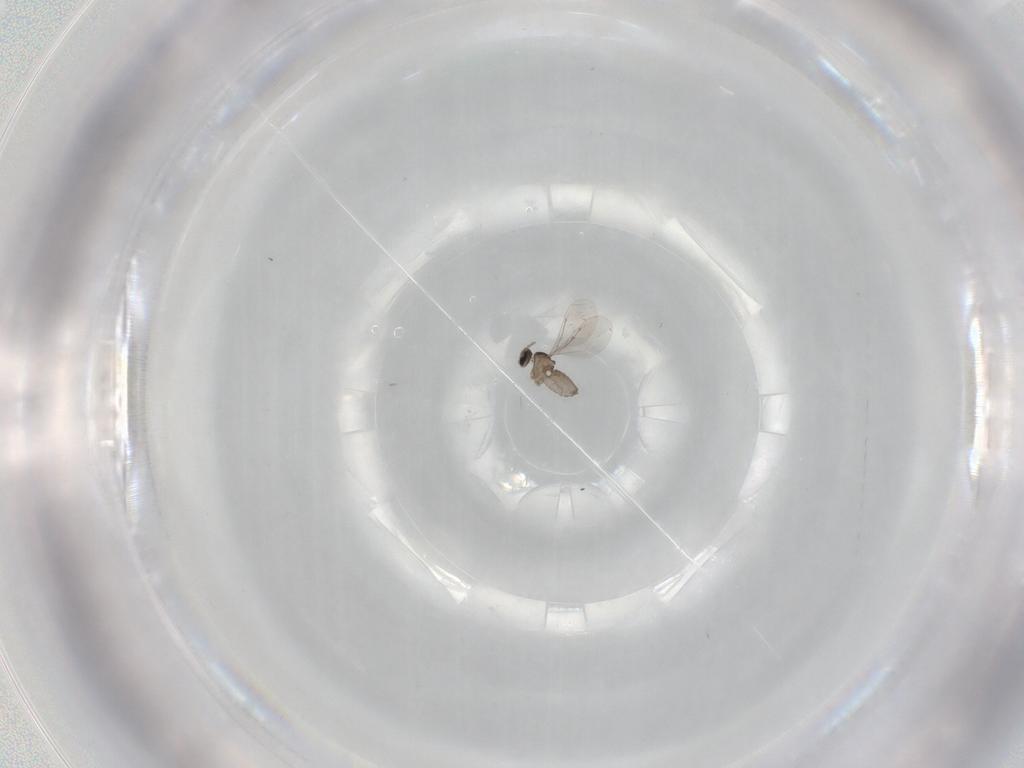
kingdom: Animalia
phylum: Arthropoda
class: Insecta
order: Diptera
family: Cecidomyiidae
